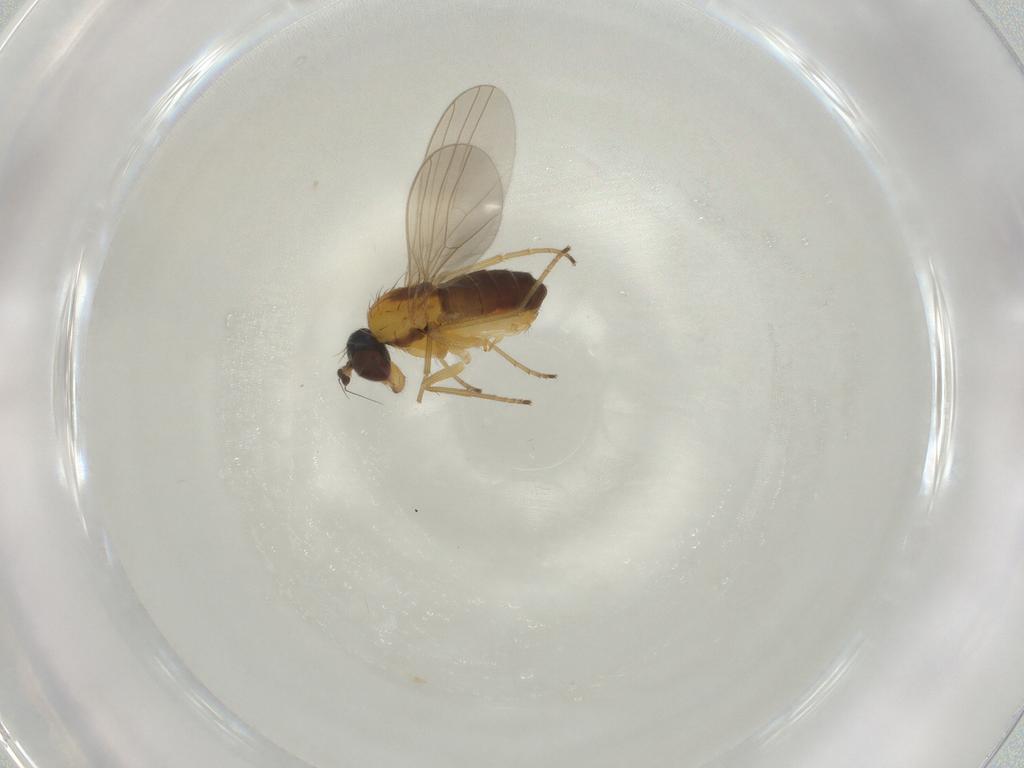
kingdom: Animalia
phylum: Arthropoda
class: Insecta
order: Diptera
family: Dolichopodidae
